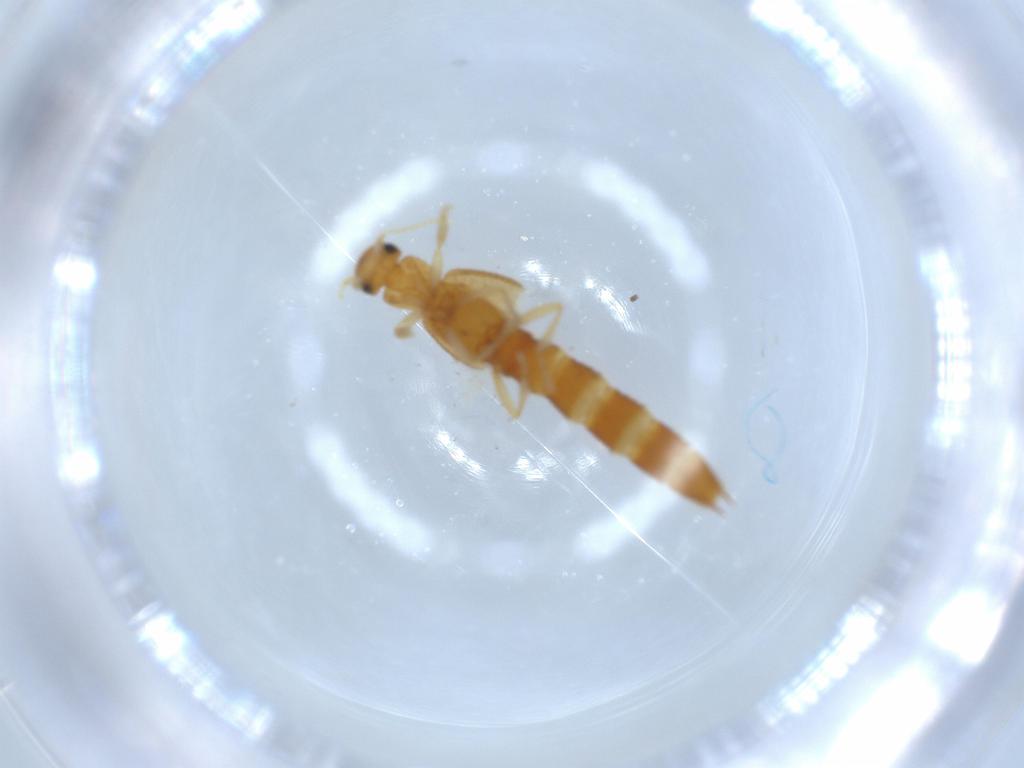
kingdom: Animalia
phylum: Arthropoda
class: Insecta
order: Coleoptera
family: Staphylinidae
